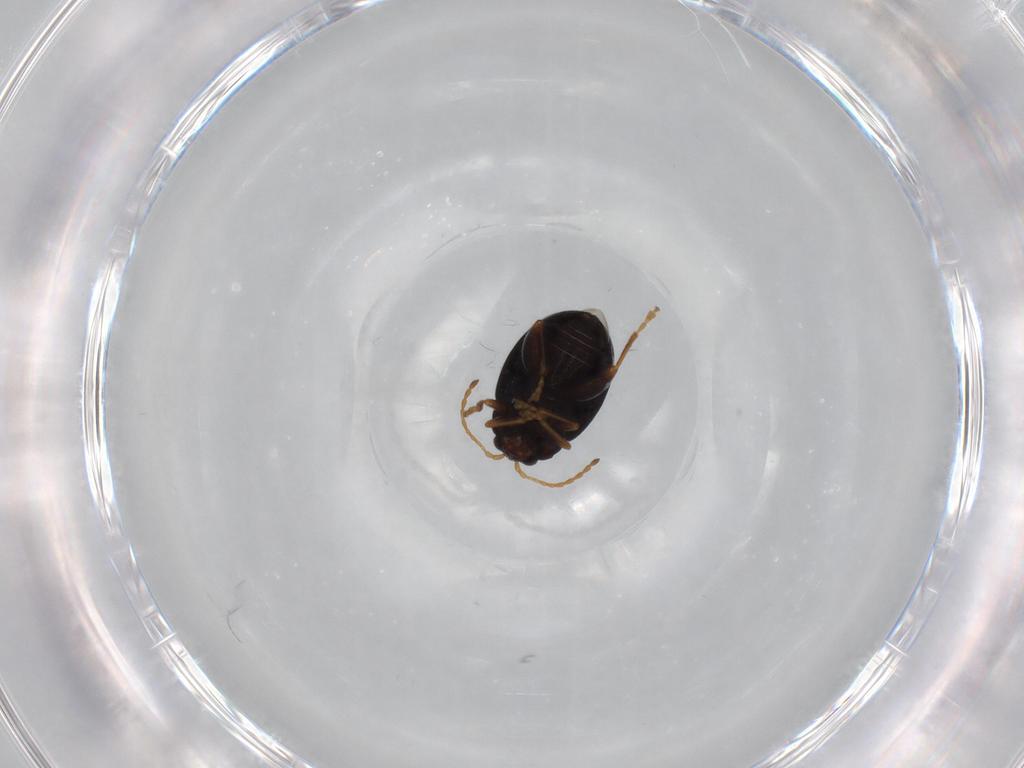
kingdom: Animalia
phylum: Arthropoda
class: Insecta
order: Coleoptera
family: Chrysomelidae
